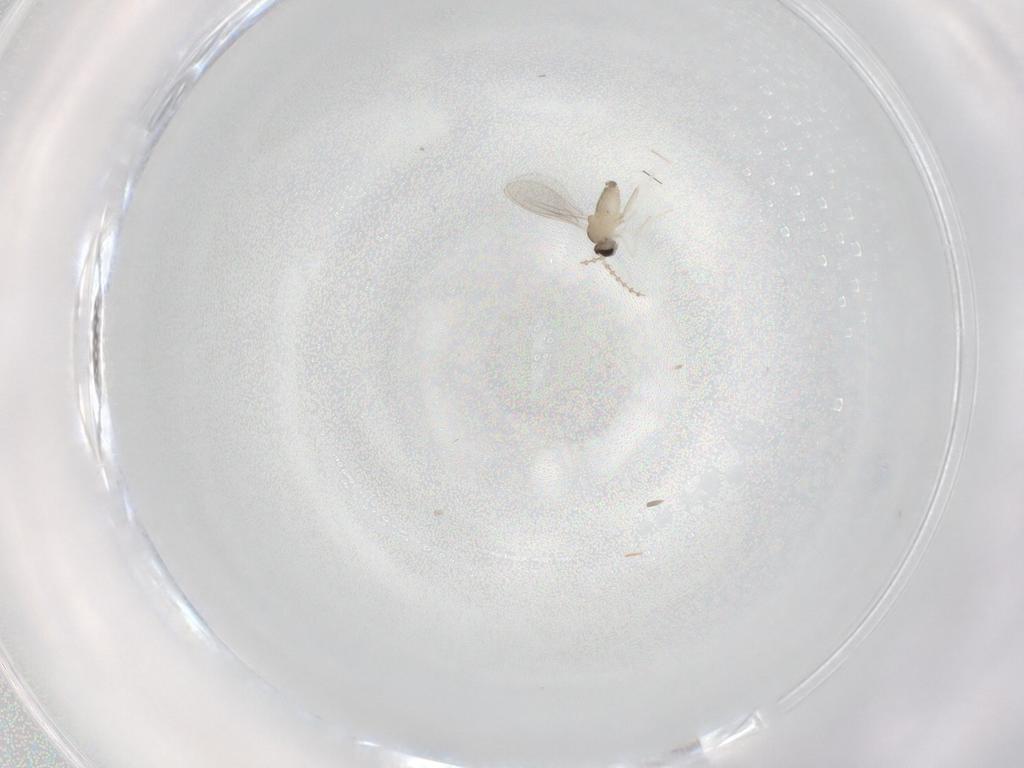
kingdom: Animalia
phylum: Arthropoda
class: Insecta
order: Diptera
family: Cecidomyiidae
